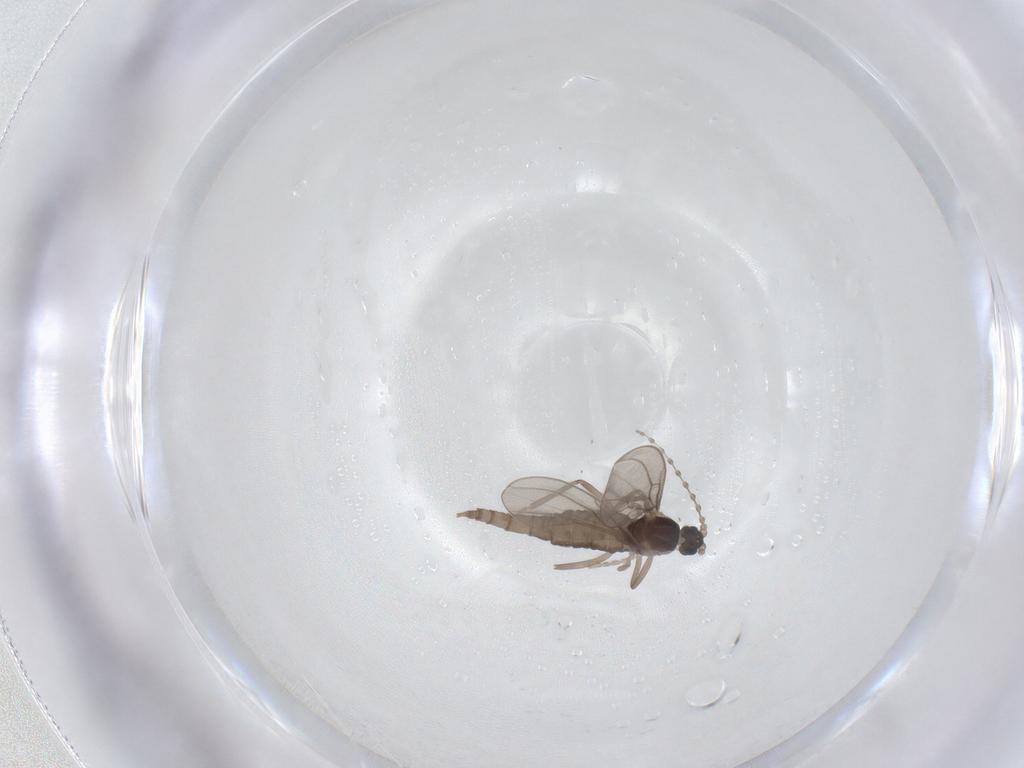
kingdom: Animalia
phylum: Arthropoda
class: Insecta
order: Diptera
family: Cecidomyiidae
